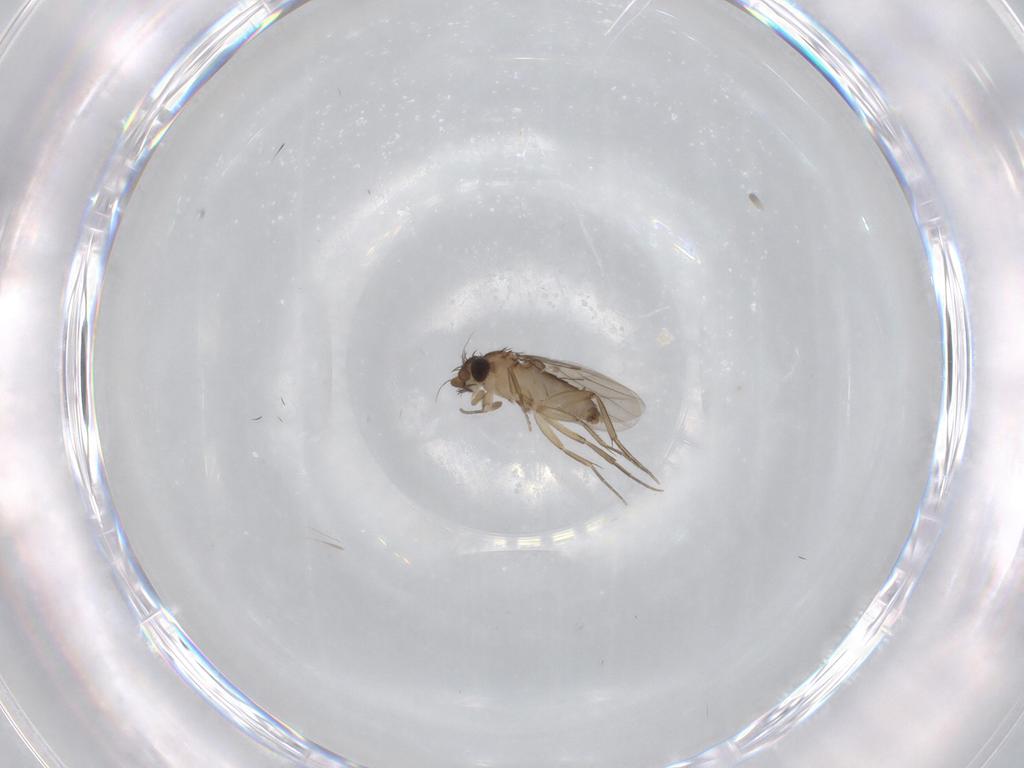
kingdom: Animalia
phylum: Arthropoda
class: Insecta
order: Diptera
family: Phoridae
